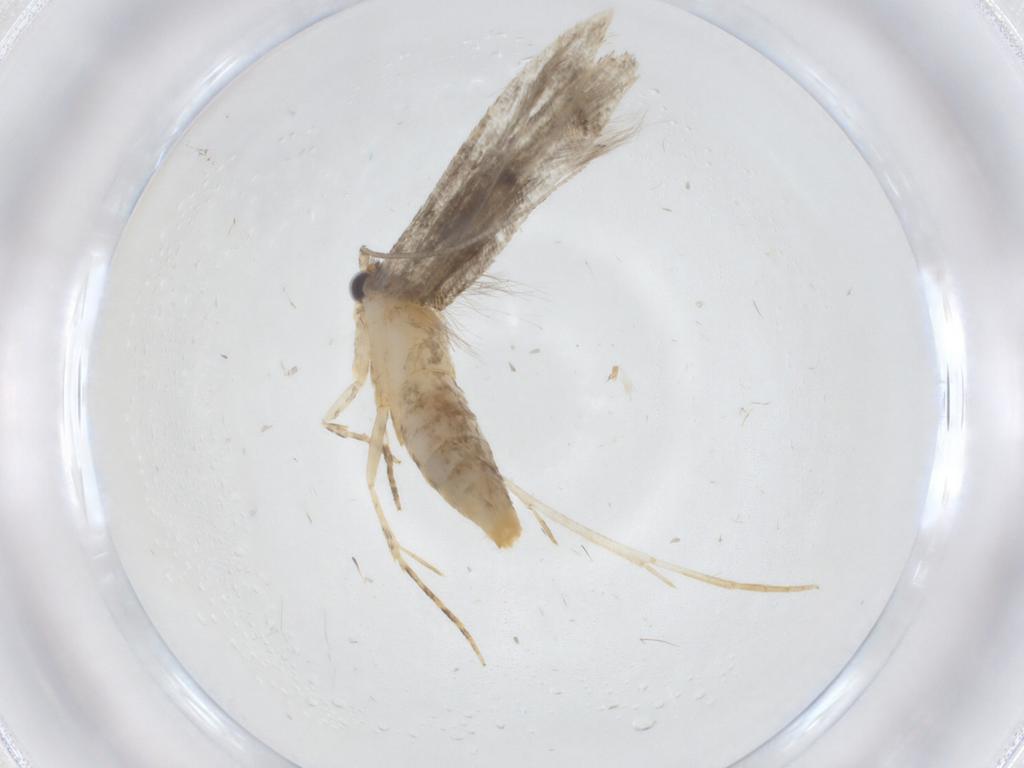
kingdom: Animalia
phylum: Arthropoda
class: Insecta
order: Lepidoptera
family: Tineidae
